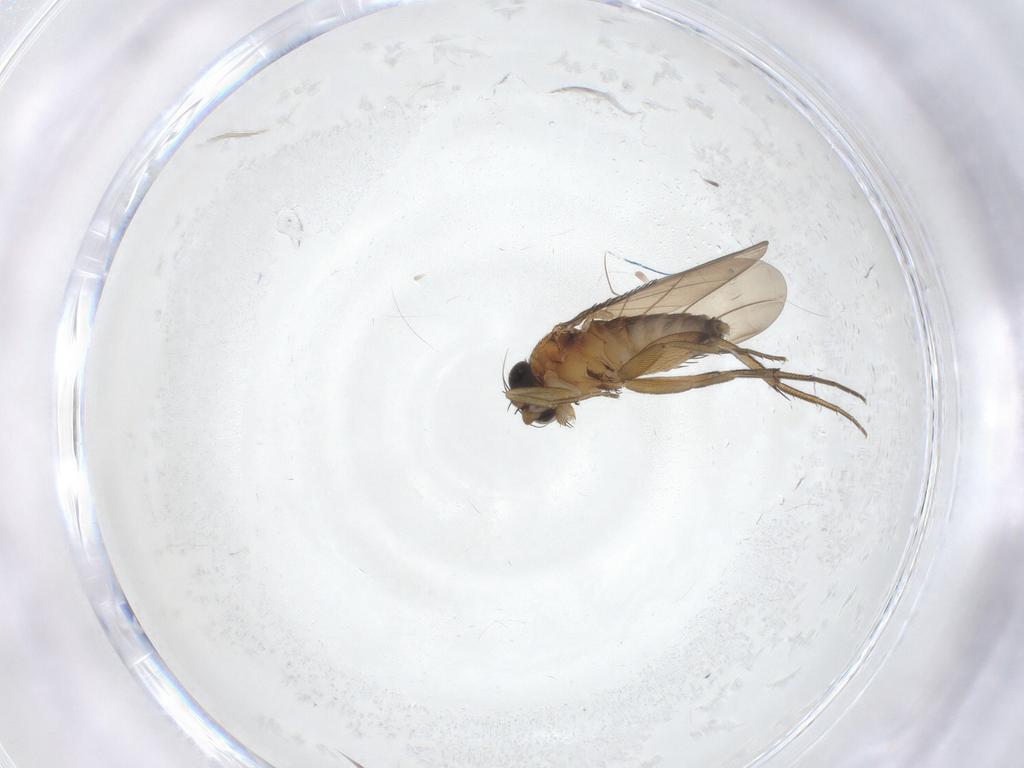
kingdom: Animalia
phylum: Arthropoda
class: Insecta
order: Diptera
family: Phoridae
